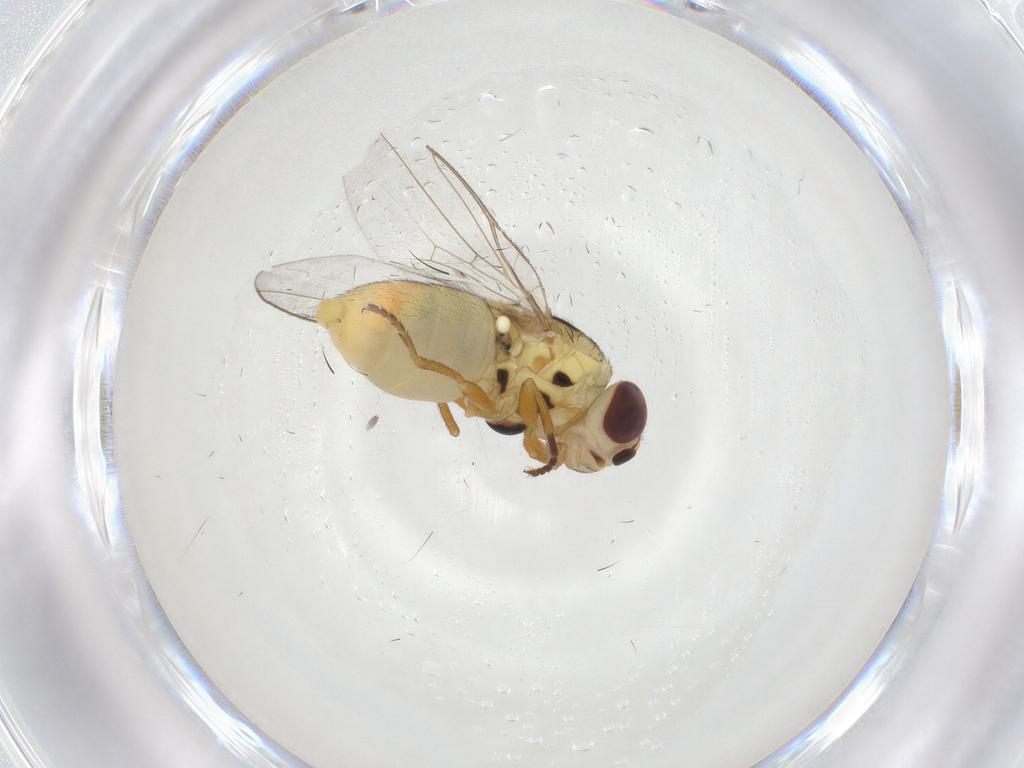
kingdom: Animalia
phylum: Arthropoda
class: Insecta
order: Diptera
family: Chloropidae
